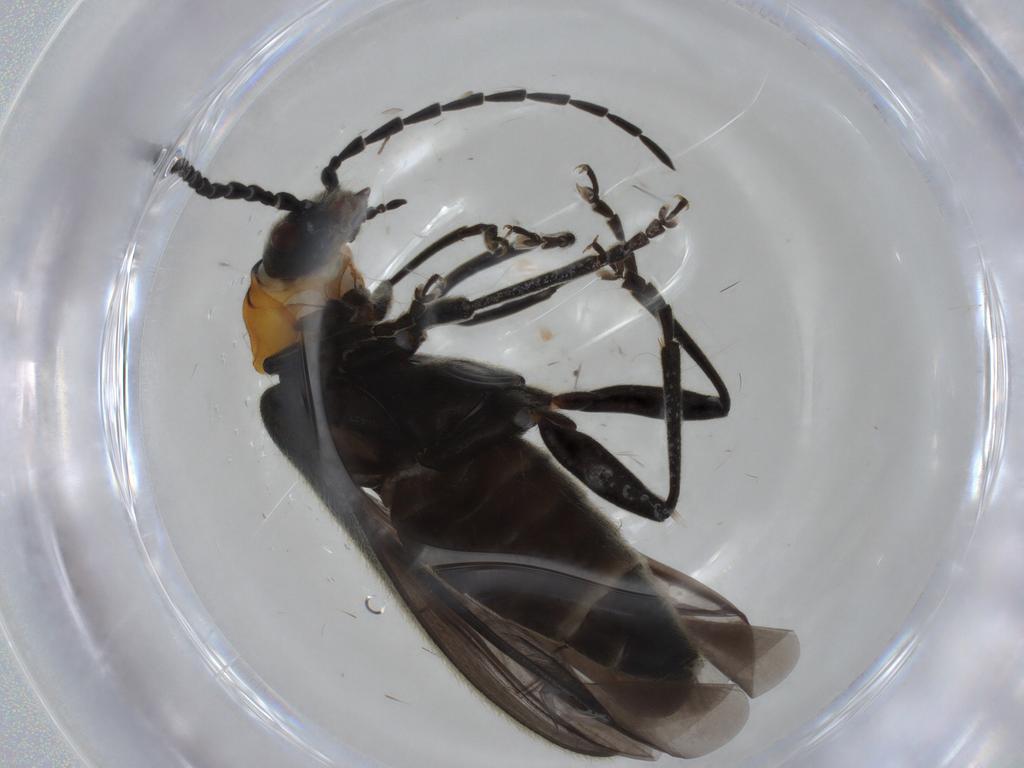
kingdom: Animalia
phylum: Arthropoda
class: Insecta
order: Coleoptera
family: Cantharidae
